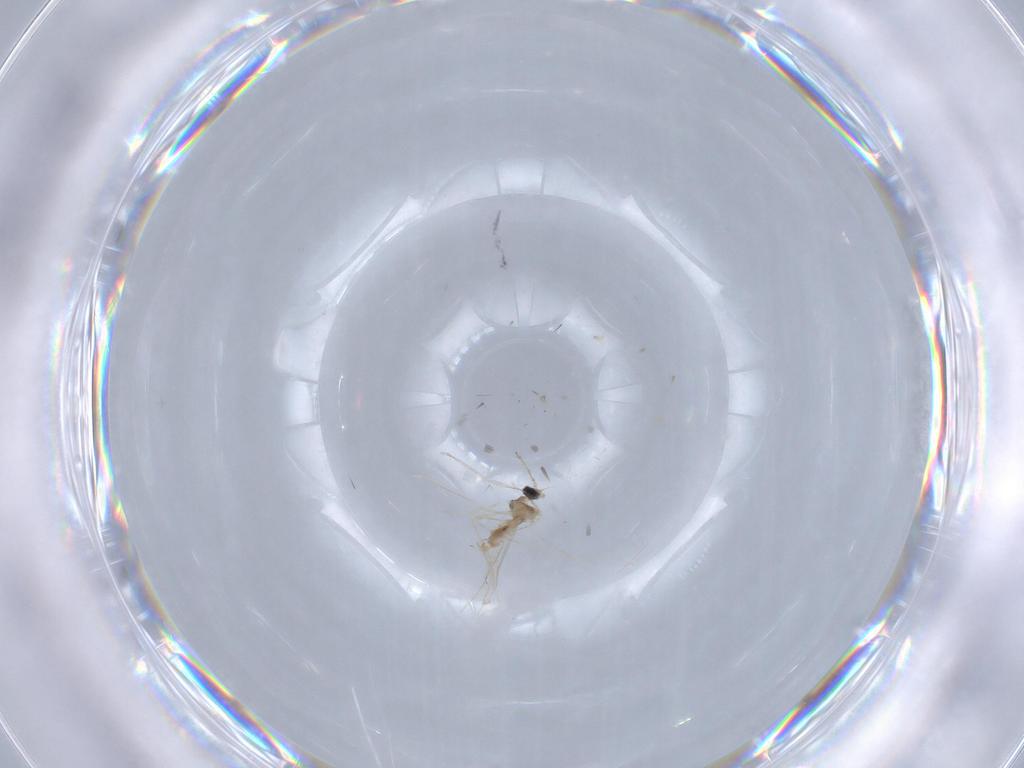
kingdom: Animalia
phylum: Arthropoda
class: Insecta
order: Diptera
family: Cecidomyiidae
